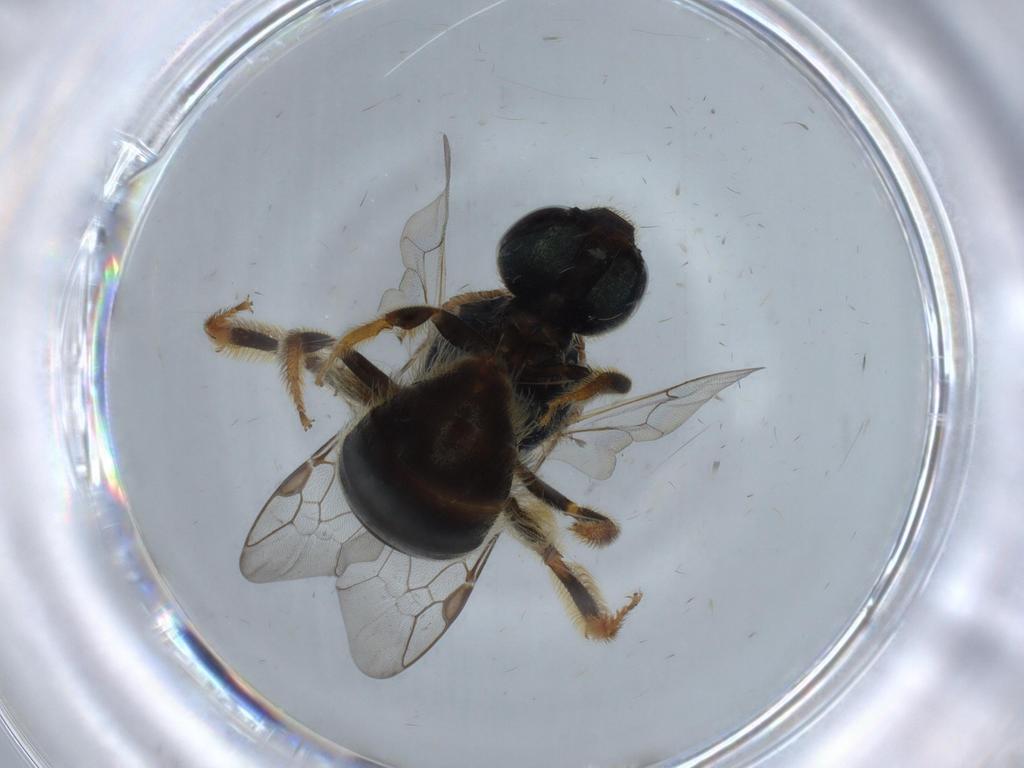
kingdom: Animalia
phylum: Arthropoda
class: Insecta
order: Hymenoptera
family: Halictidae
